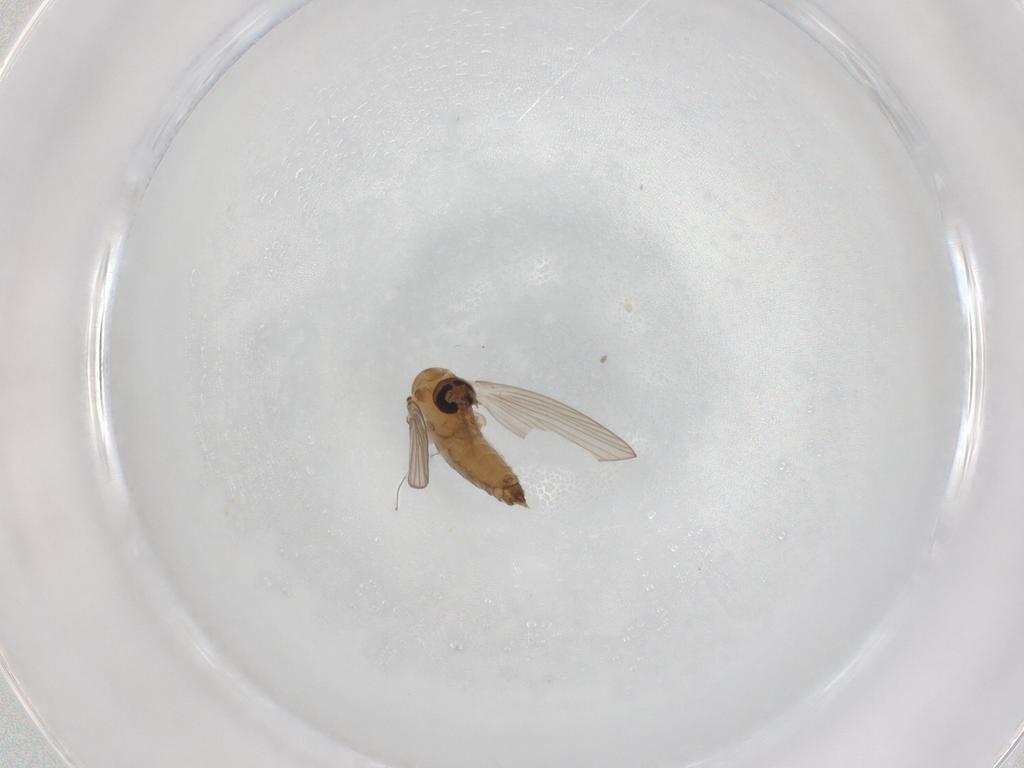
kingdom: Animalia
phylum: Arthropoda
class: Insecta
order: Diptera
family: Psychodidae
